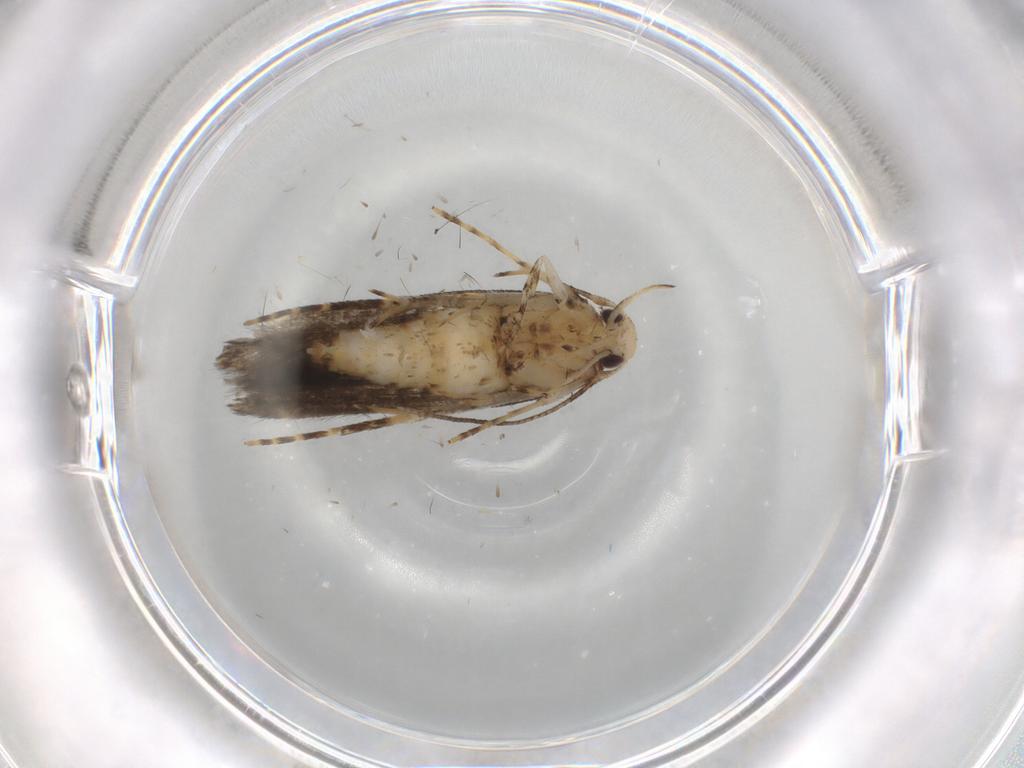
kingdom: Animalia
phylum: Arthropoda
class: Insecta
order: Lepidoptera
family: Cosmopterigidae
